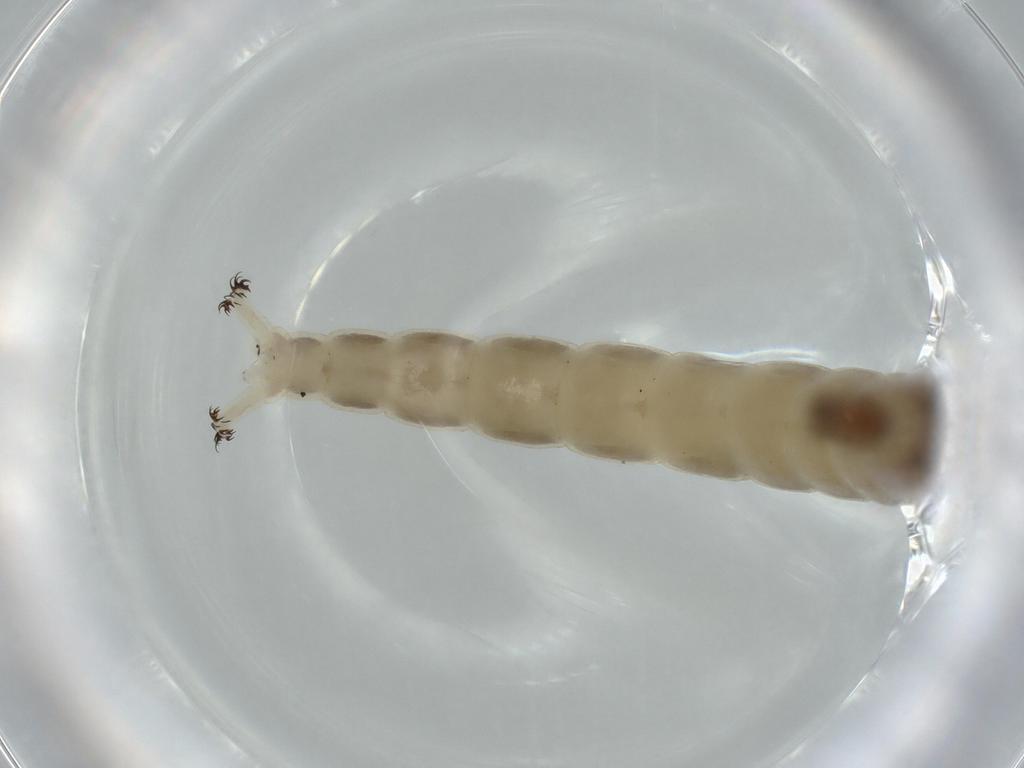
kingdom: Animalia
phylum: Arthropoda
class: Insecta
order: Diptera
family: Chironomidae
